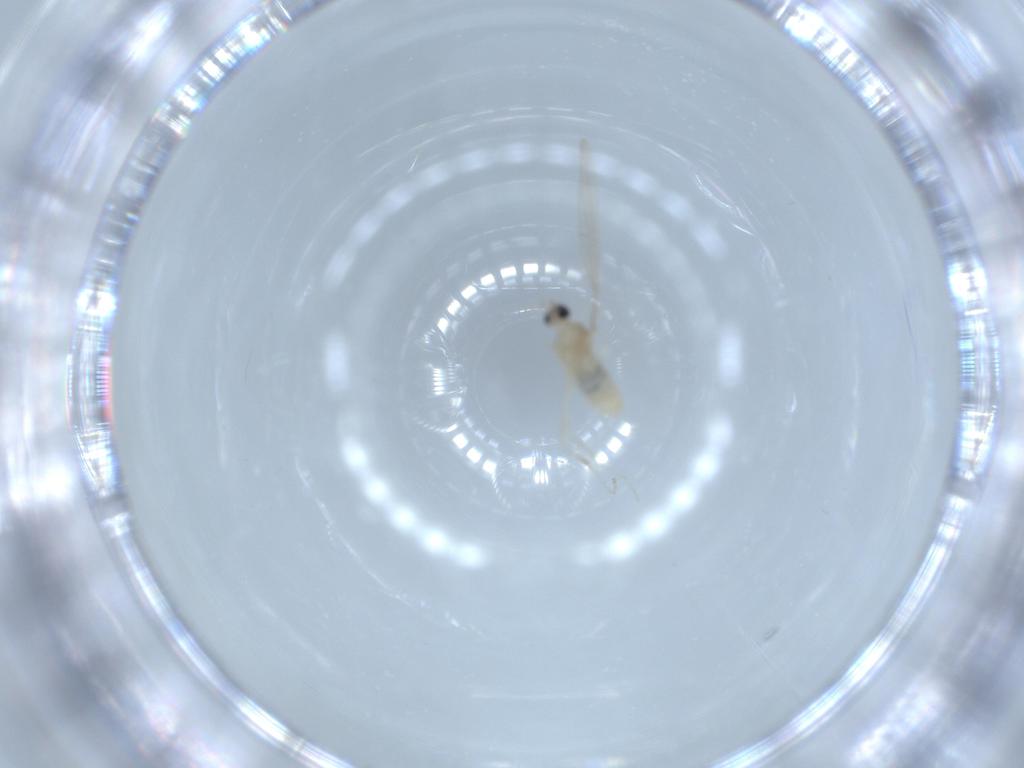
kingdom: Animalia
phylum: Arthropoda
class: Insecta
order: Diptera
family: Cecidomyiidae
